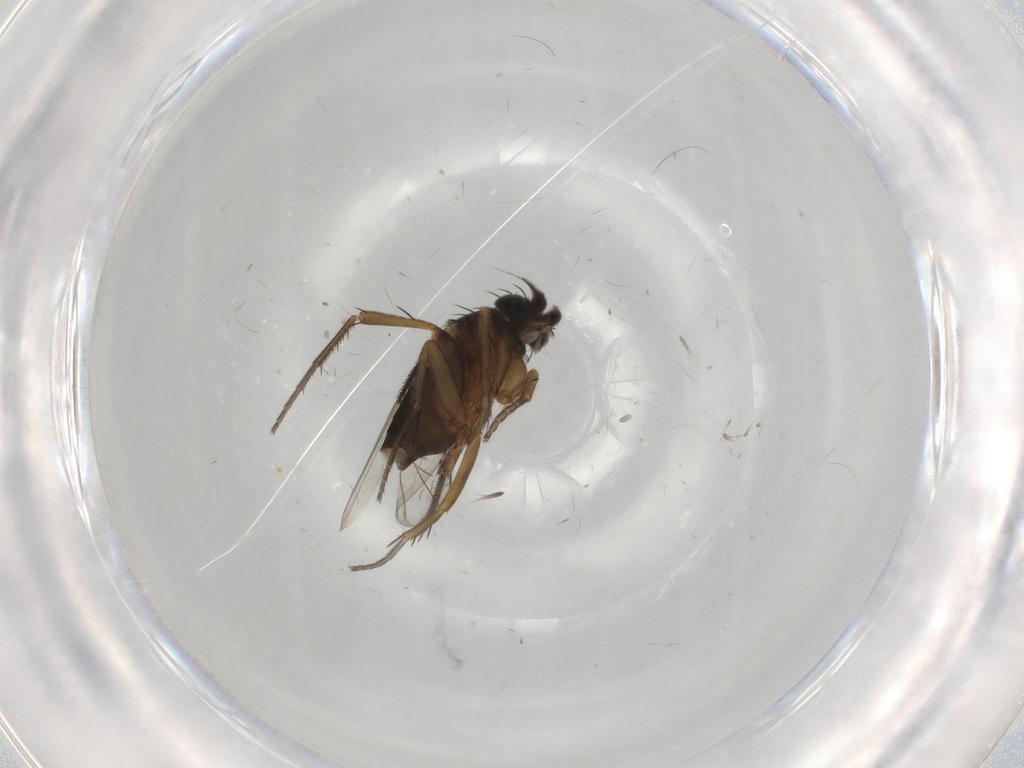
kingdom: Animalia
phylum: Arthropoda
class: Insecta
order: Diptera
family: Phoridae
